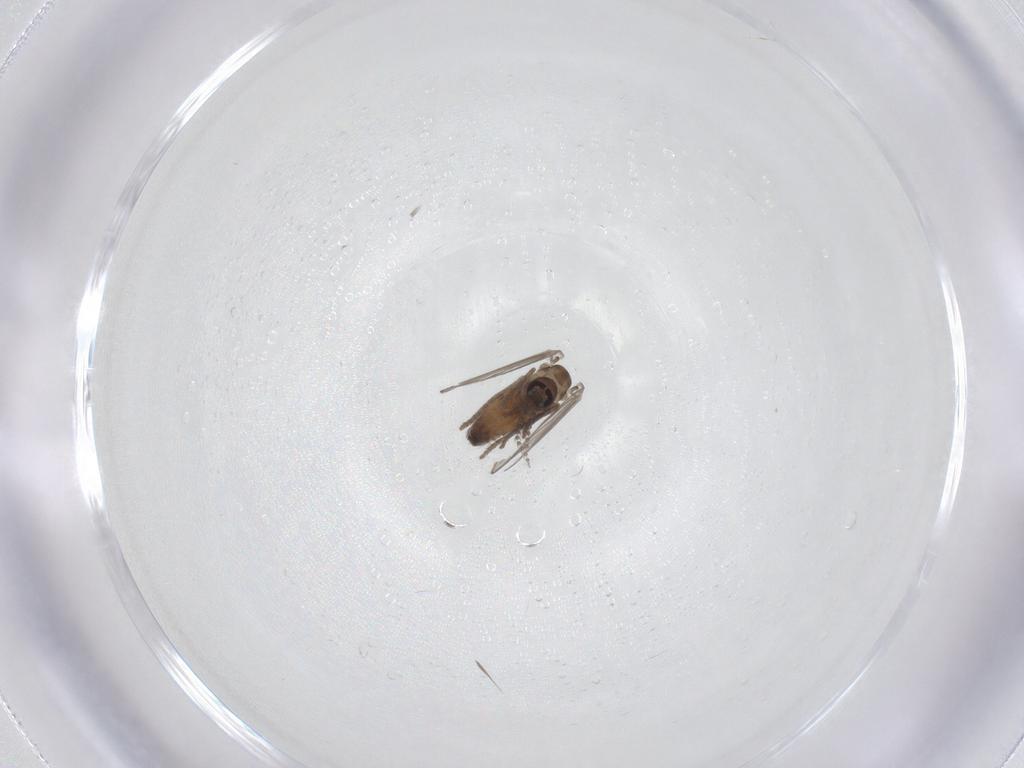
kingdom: Animalia
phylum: Arthropoda
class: Insecta
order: Diptera
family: Psychodidae
